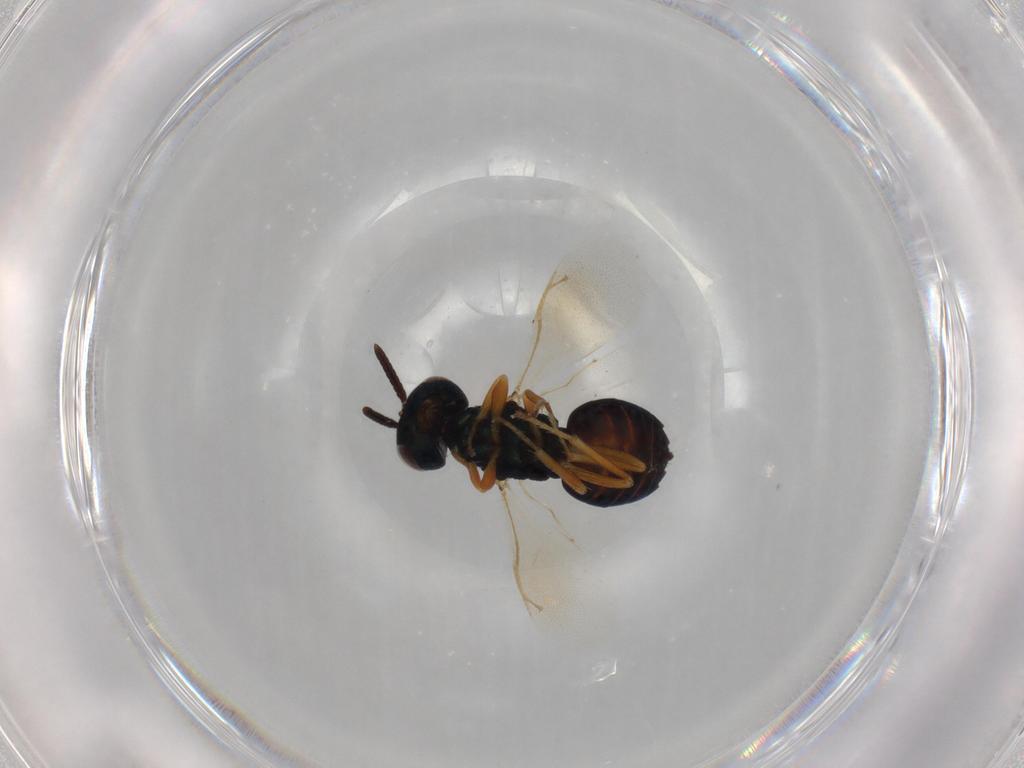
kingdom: Animalia
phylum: Arthropoda
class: Insecta
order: Hymenoptera
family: Pteromalidae
